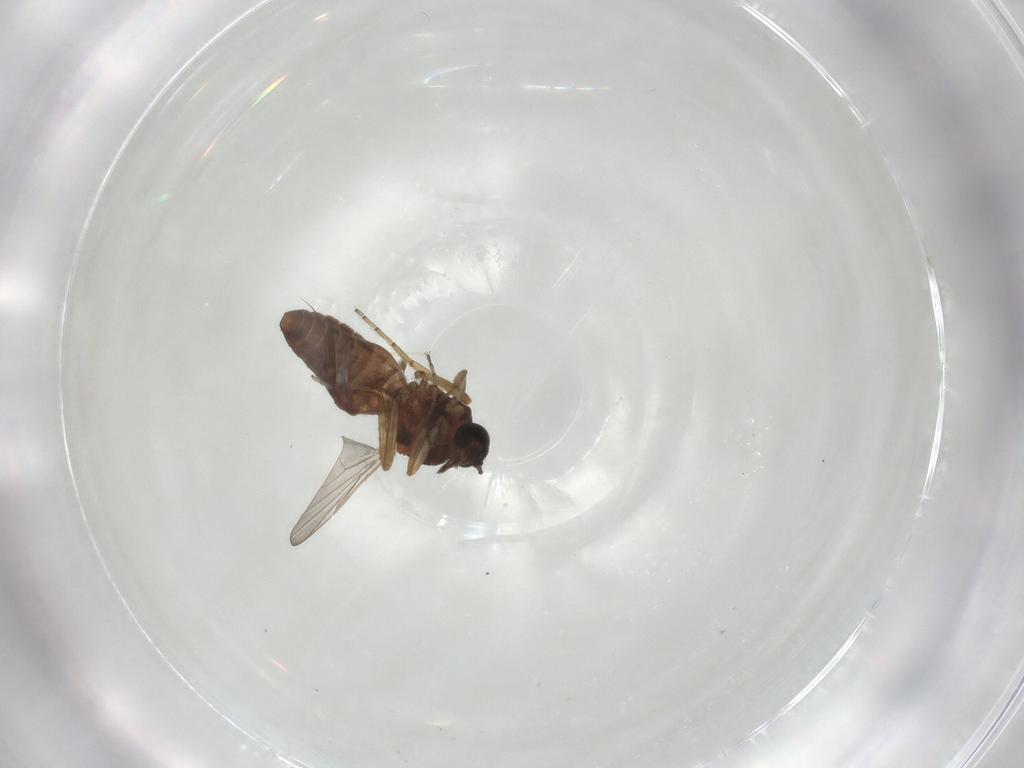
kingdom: Animalia
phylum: Arthropoda
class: Insecta
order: Diptera
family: Ceratopogonidae
